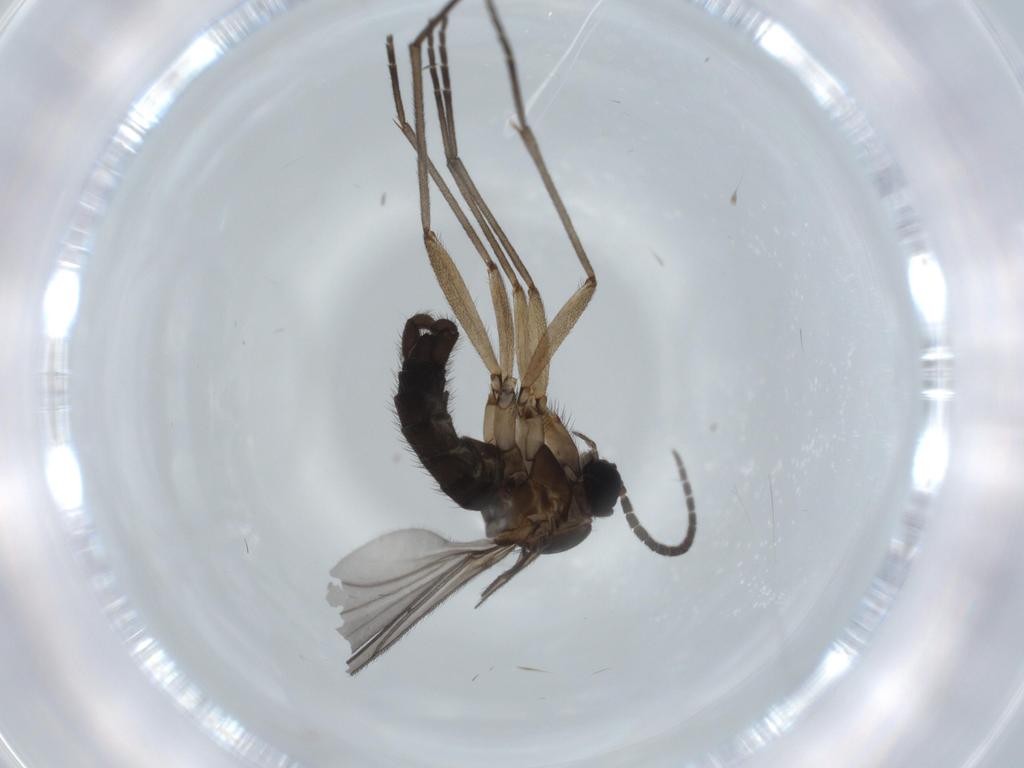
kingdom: Animalia
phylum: Arthropoda
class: Insecta
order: Diptera
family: Sciaridae
